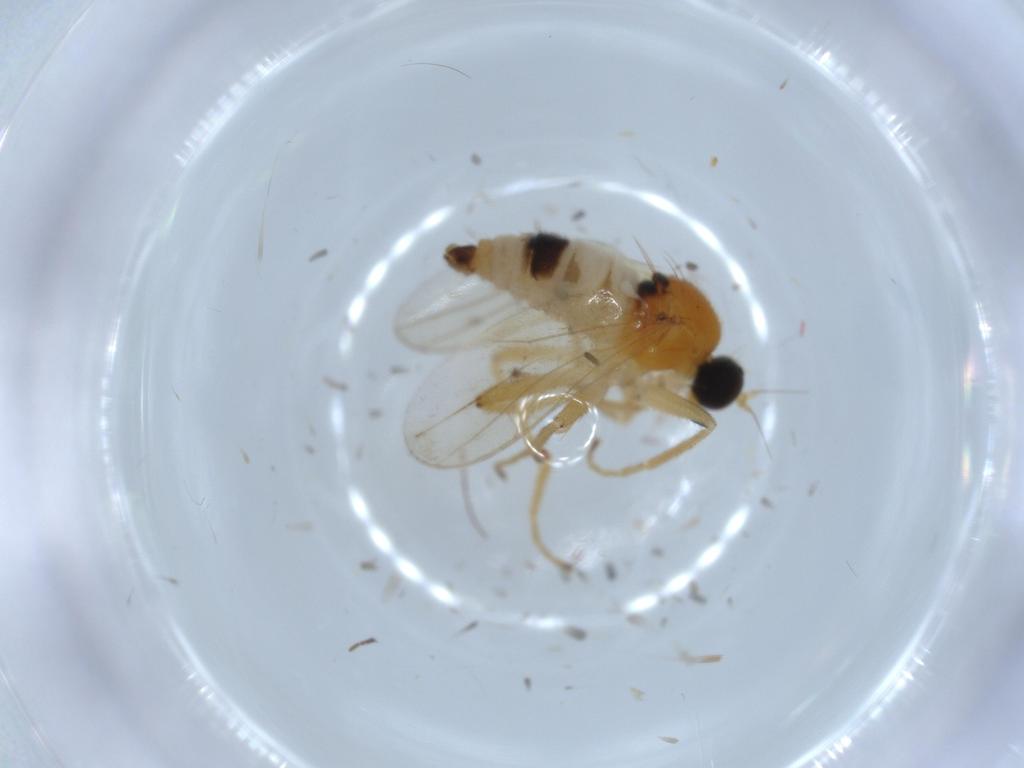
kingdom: Animalia
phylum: Arthropoda
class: Insecta
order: Diptera
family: Hybotidae
